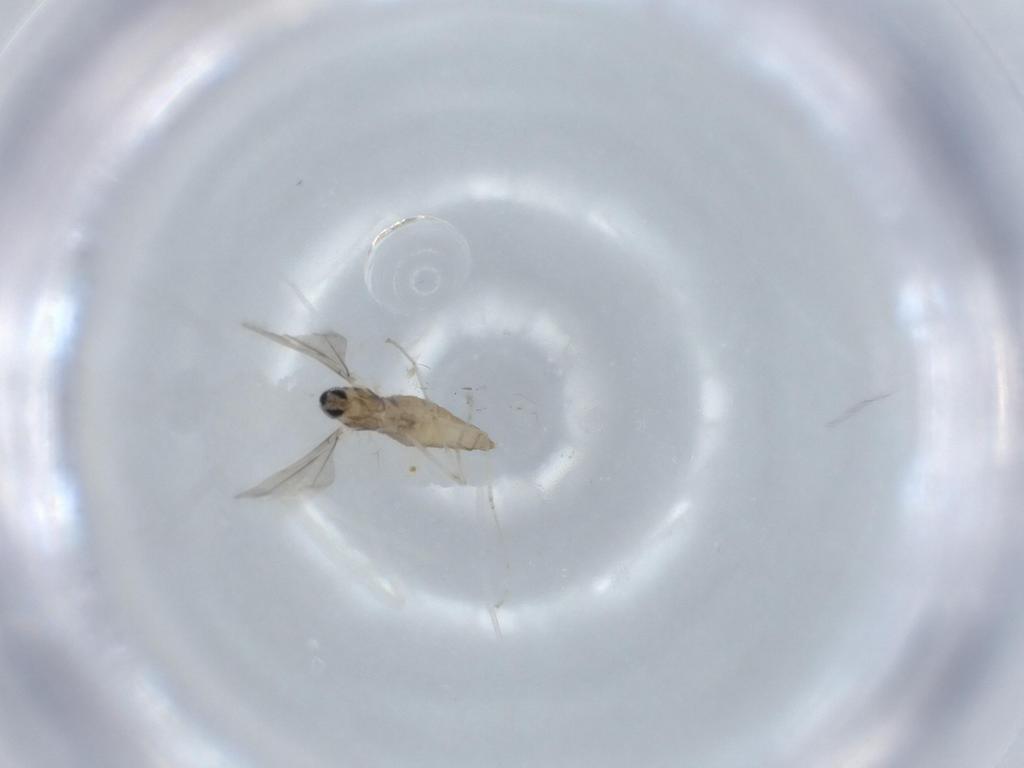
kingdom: Animalia
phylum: Arthropoda
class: Insecta
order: Diptera
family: Cecidomyiidae
